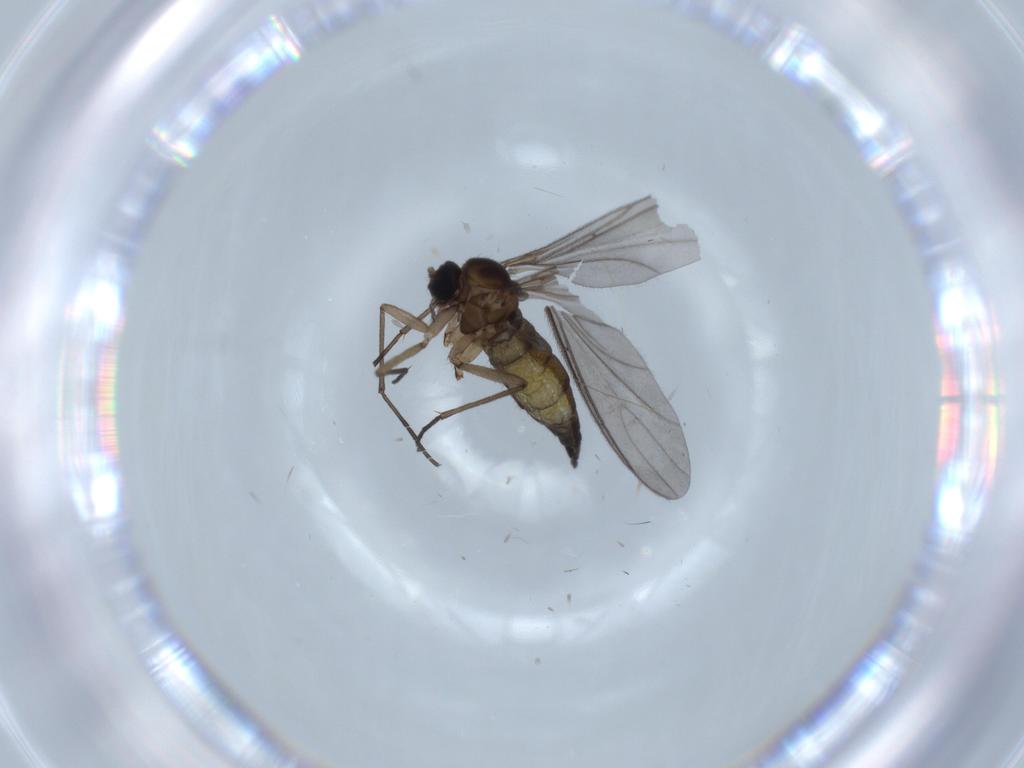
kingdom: Animalia
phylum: Arthropoda
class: Insecta
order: Diptera
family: Sciaridae
